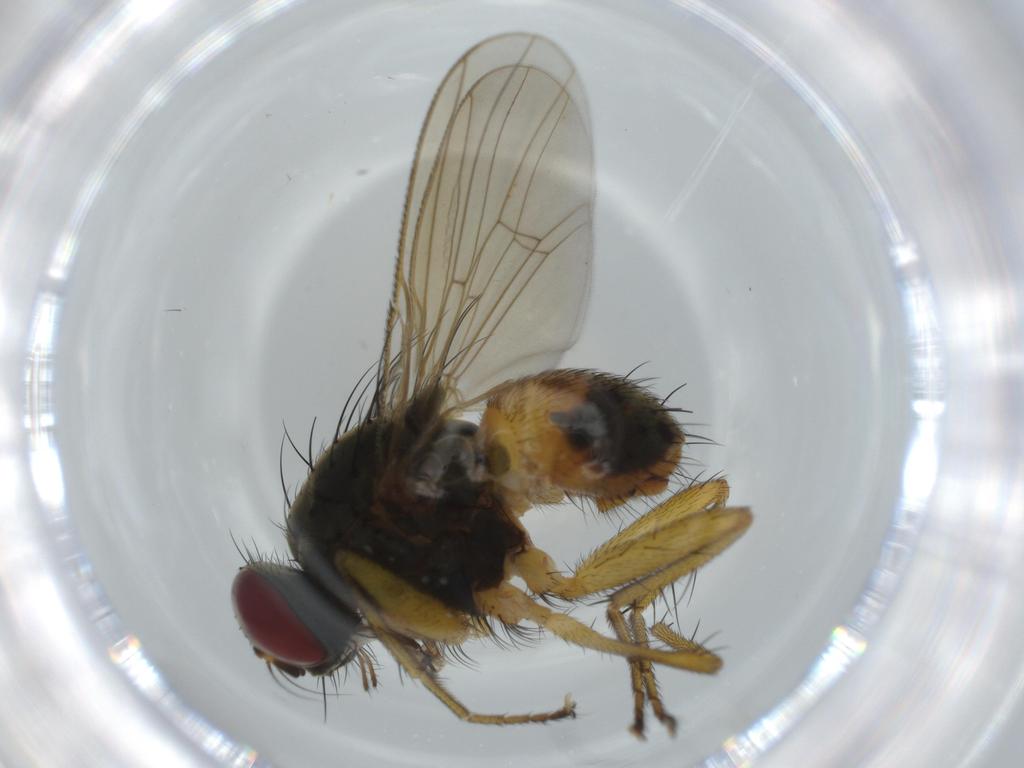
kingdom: Animalia
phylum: Arthropoda
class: Insecta
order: Diptera
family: Muscidae
